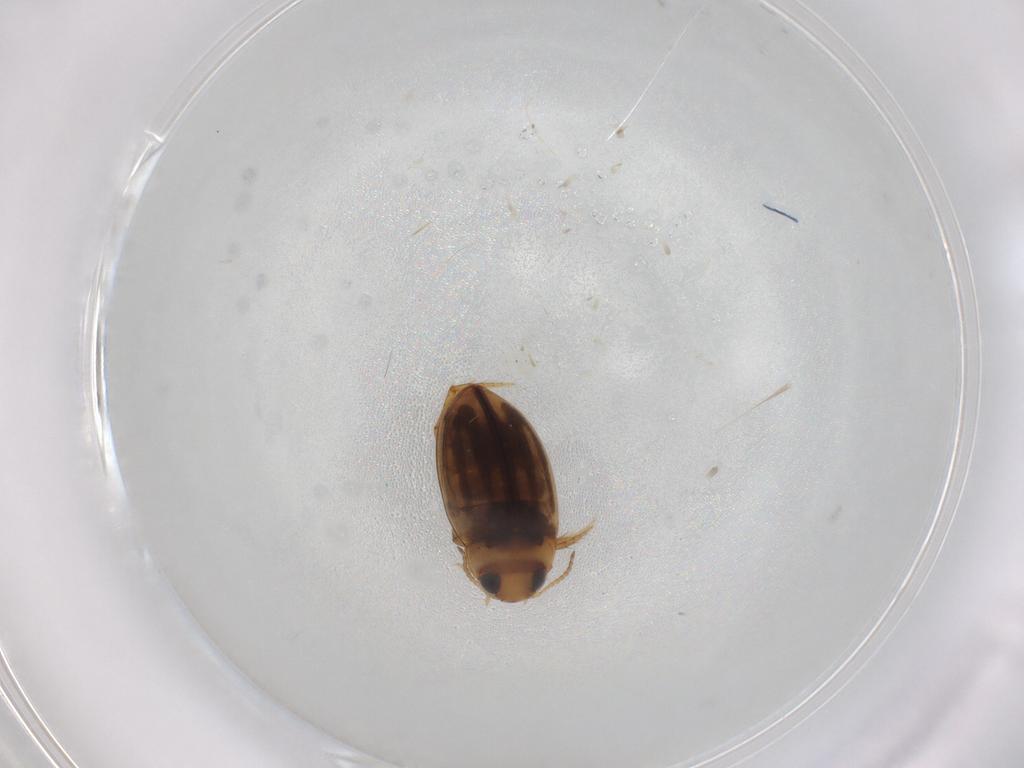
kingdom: Animalia
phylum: Arthropoda
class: Insecta
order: Coleoptera
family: Dytiscidae
